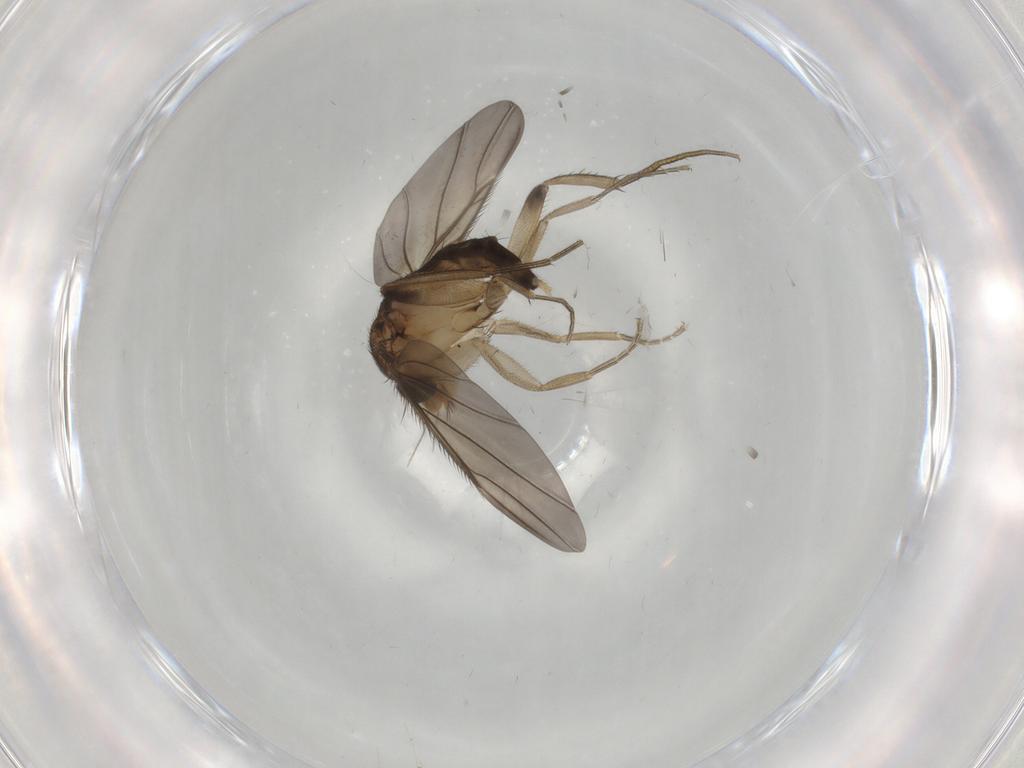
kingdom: Animalia
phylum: Arthropoda
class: Insecta
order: Diptera
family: Phoridae
